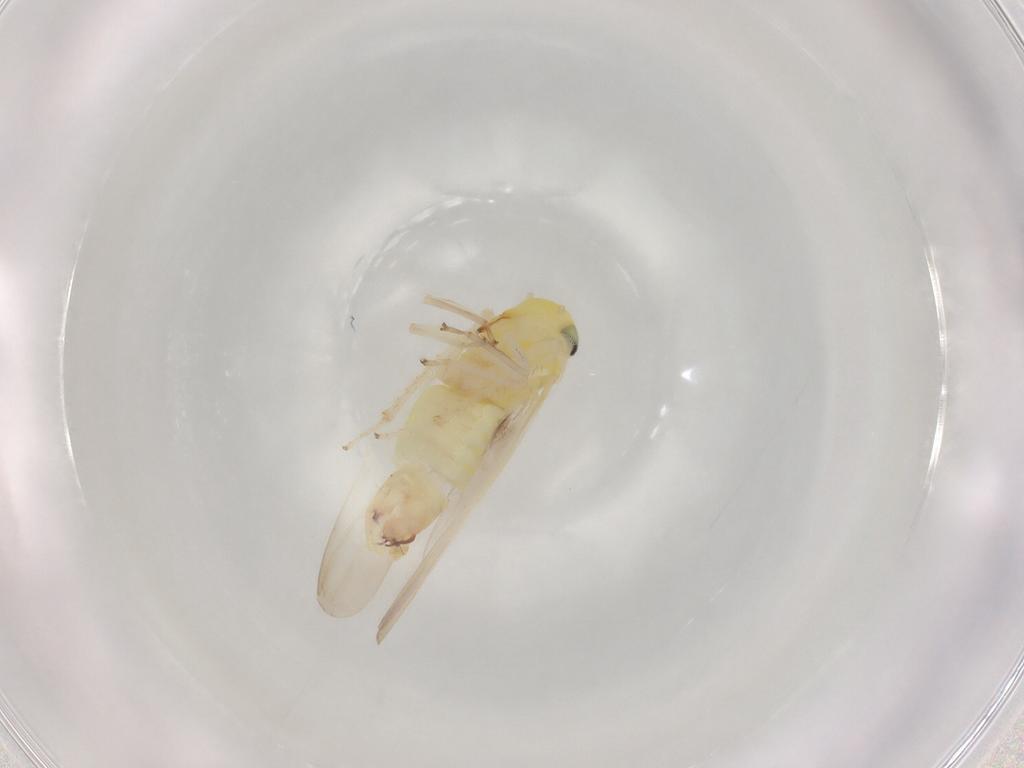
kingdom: Animalia
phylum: Arthropoda
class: Insecta
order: Hemiptera
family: Cicadellidae
